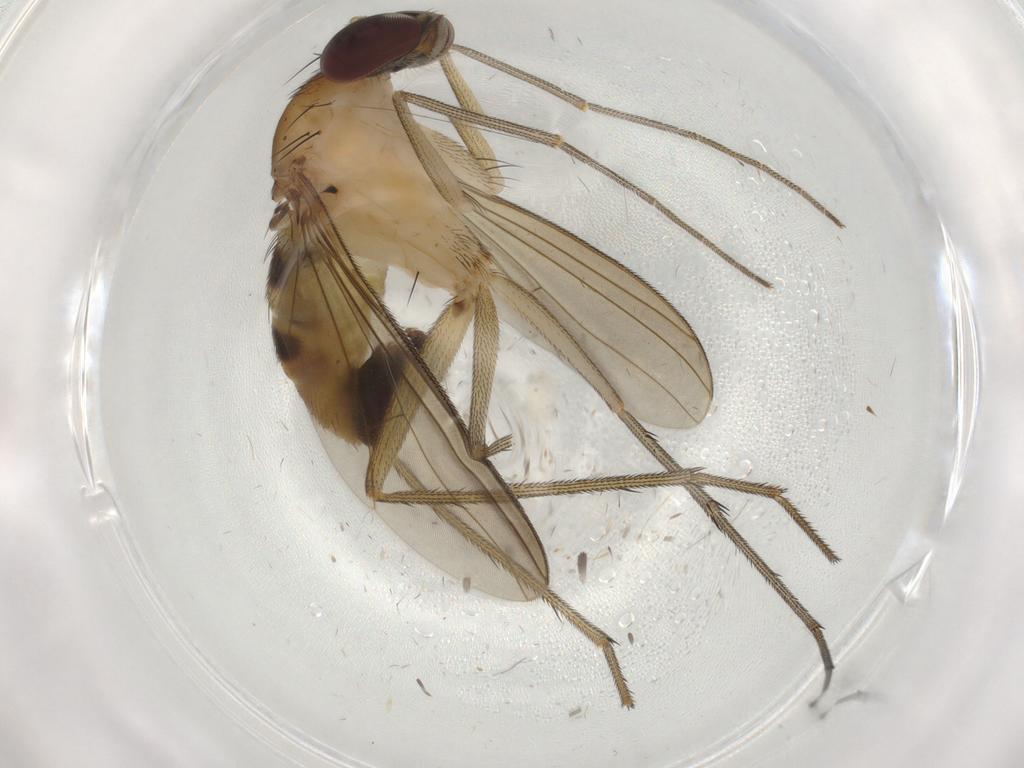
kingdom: Animalia
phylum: Arthropoda
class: Insecta
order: Diptera
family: Dolichopodidae
